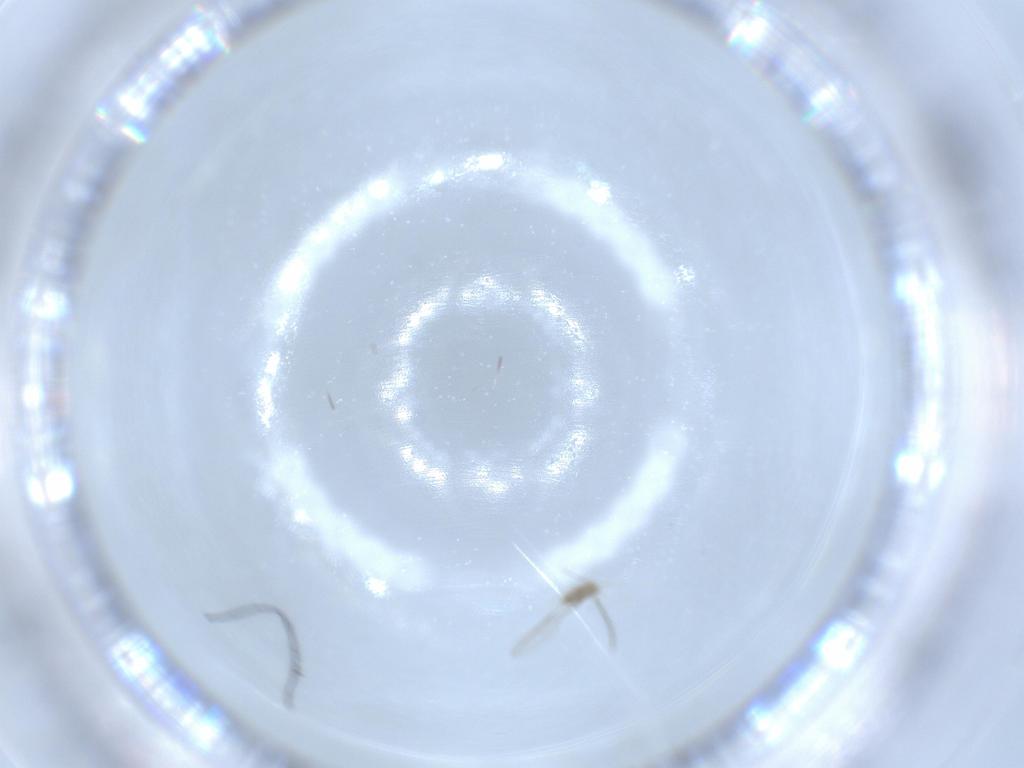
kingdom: Animalia
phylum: Arthropoda
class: Insecta
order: Diptera
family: Cecidomyiidae
